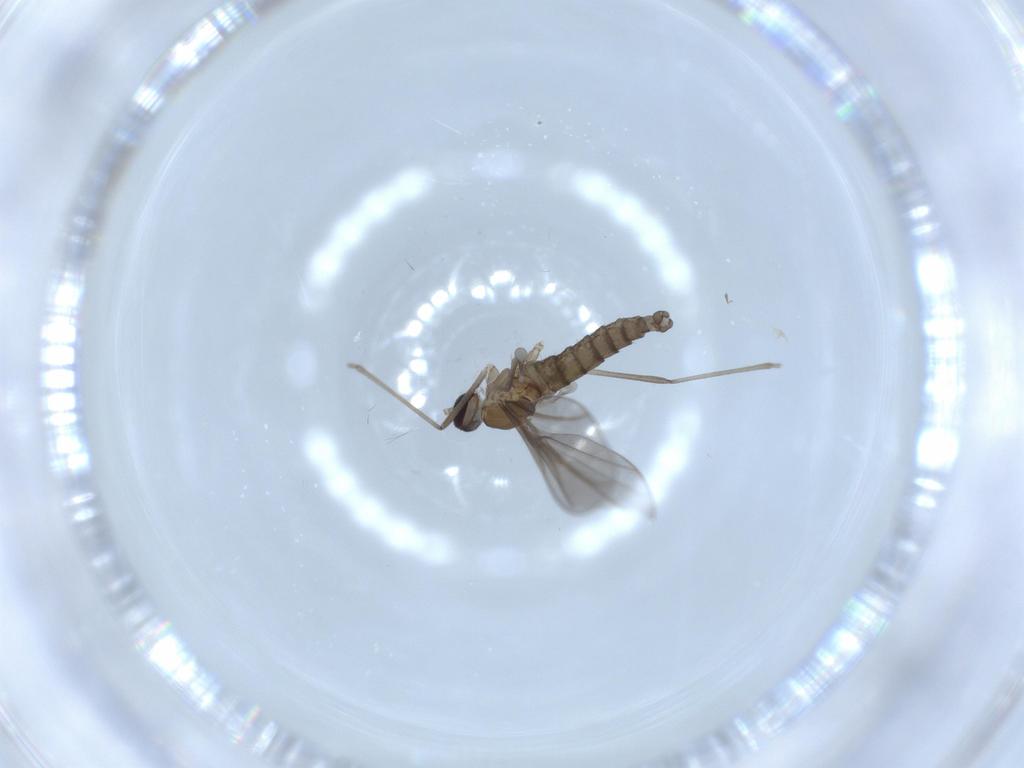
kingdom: Animalia
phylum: Arthropoda
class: Insecta
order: Diptera
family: Cecidomyiidae
